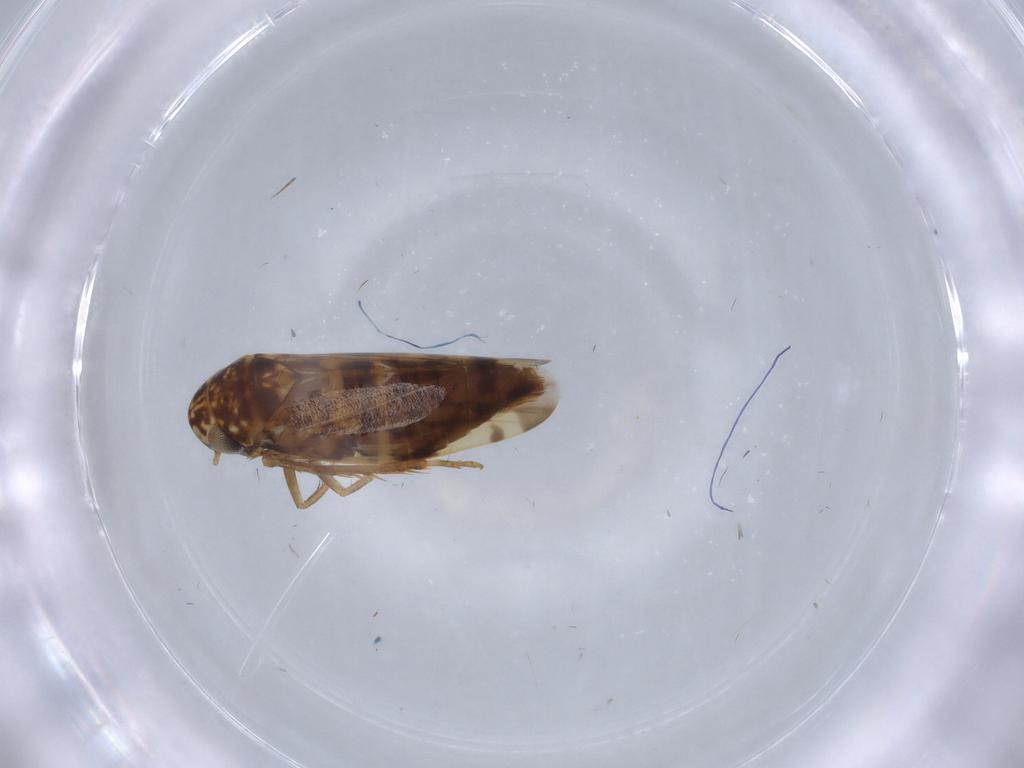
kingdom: Animalia
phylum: Arthropoda
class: Insecta
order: Hemiptera
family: Cicadellidae
